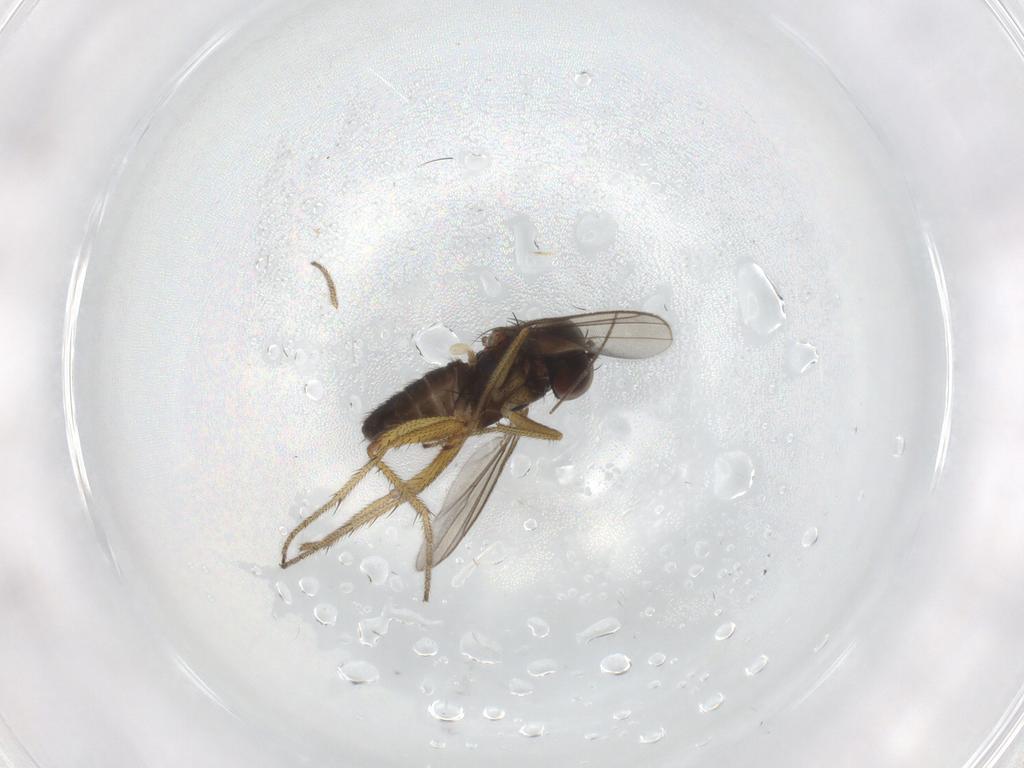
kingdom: Animalia
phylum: Arthropoda
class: Insecta
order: Diptera
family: Chironomidae
